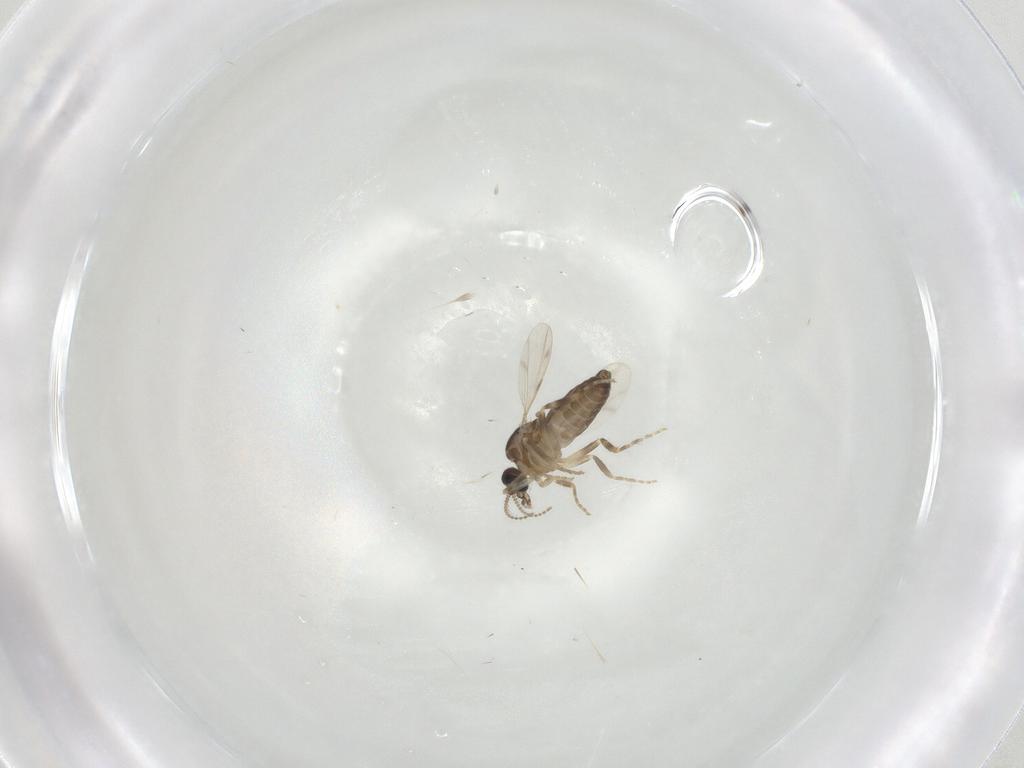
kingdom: Animalia
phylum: Arthropoda
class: Insecta
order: Diptera
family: Ceratopogonidae
